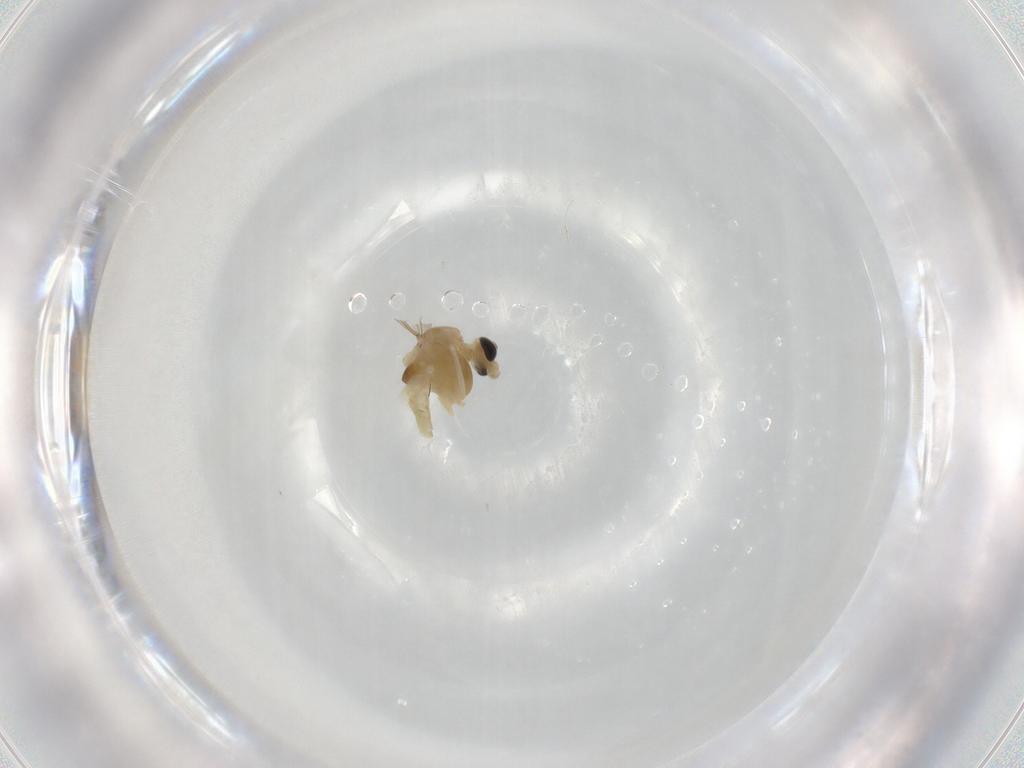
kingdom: Animalia
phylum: Arthropoda
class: Insecta
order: Diptera
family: Chironomidae
